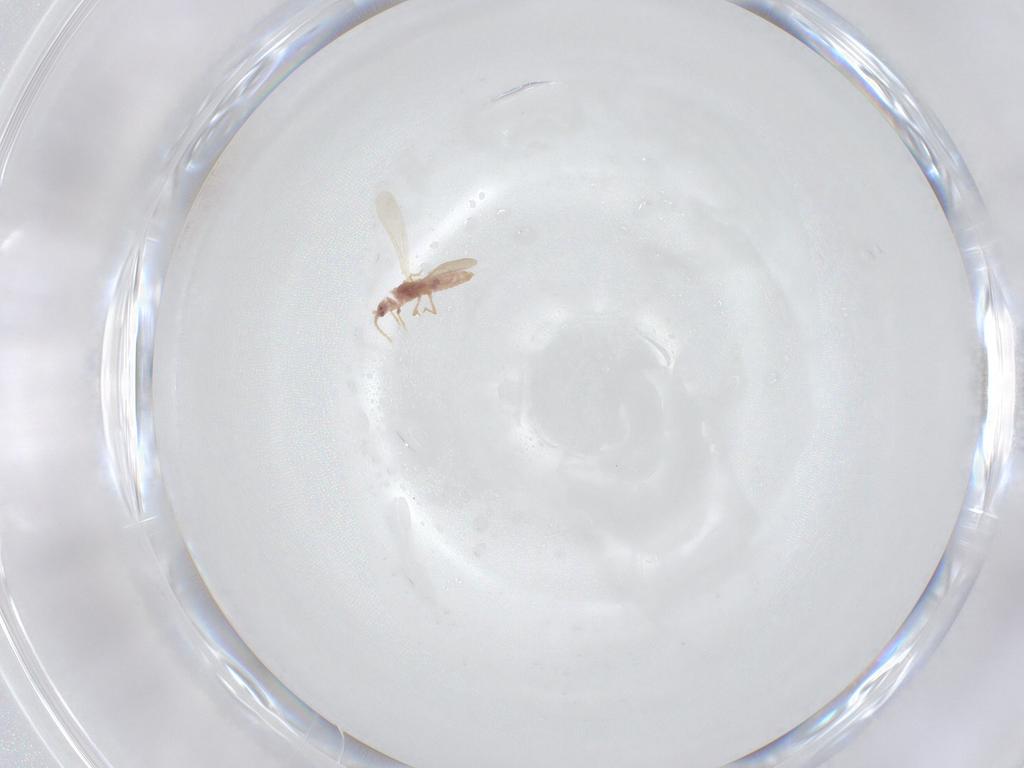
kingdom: Animalia
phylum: Arthropoda
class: Insecta
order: Hemiptera
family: Pseudococcidae
